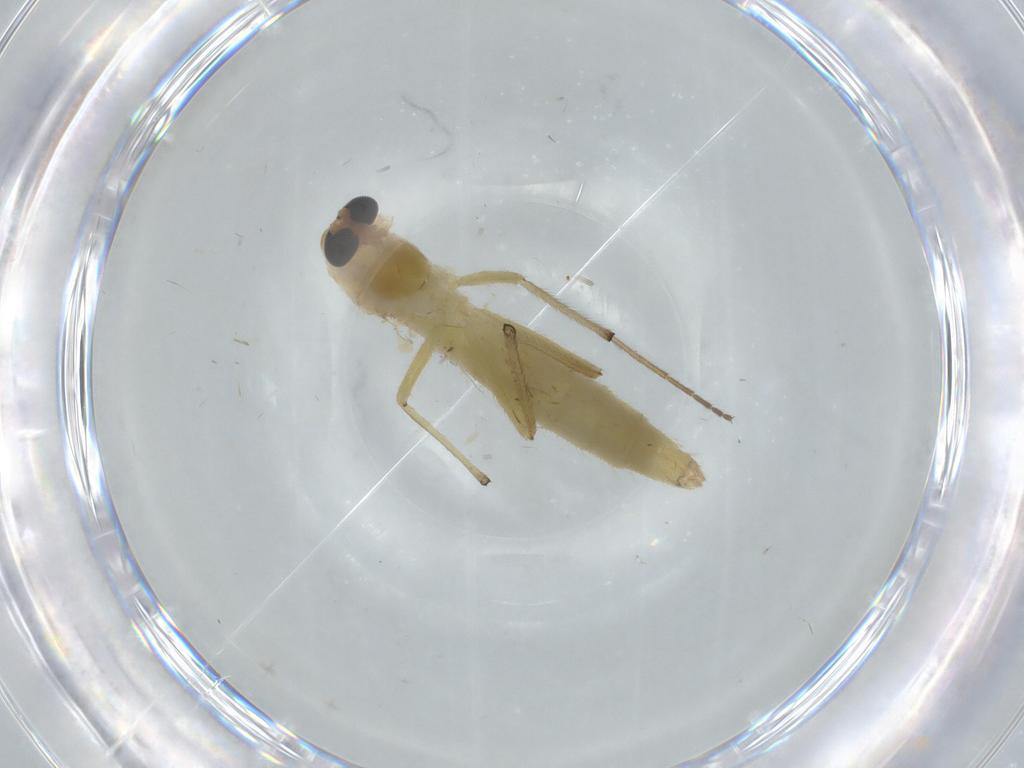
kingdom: Animalia
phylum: Arthropoda
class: Insecta
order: Diptera
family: Chironomidae
